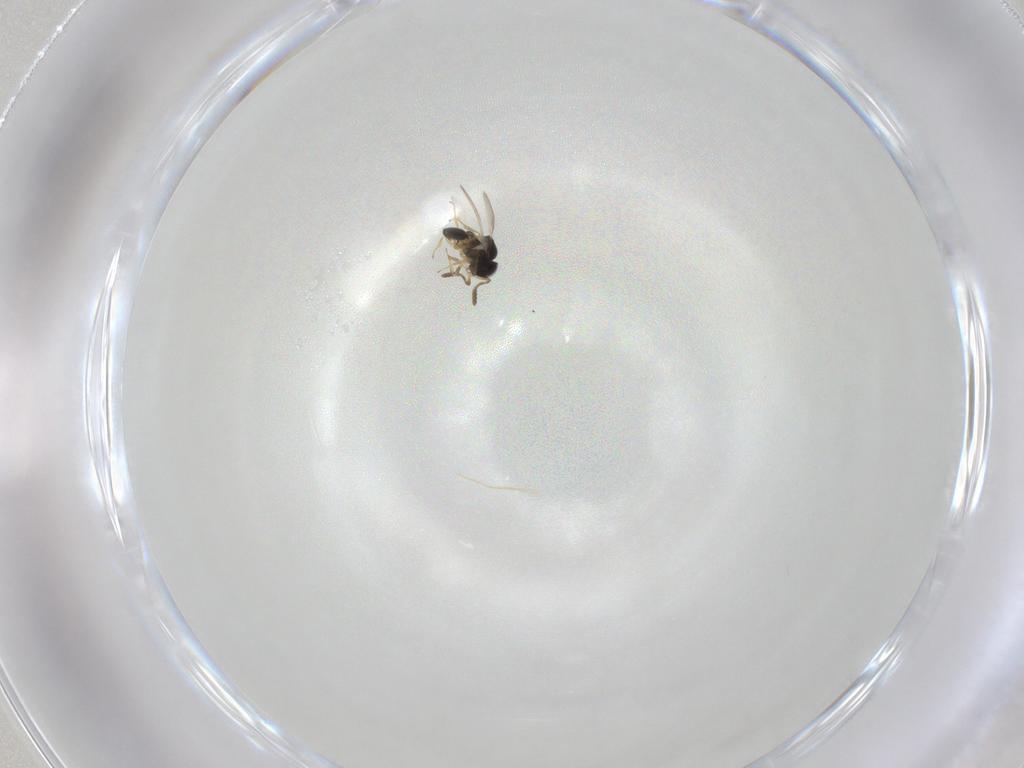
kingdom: Animalia
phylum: Arthropoda
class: Insecta
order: Hymenoptera
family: Scelionidae
